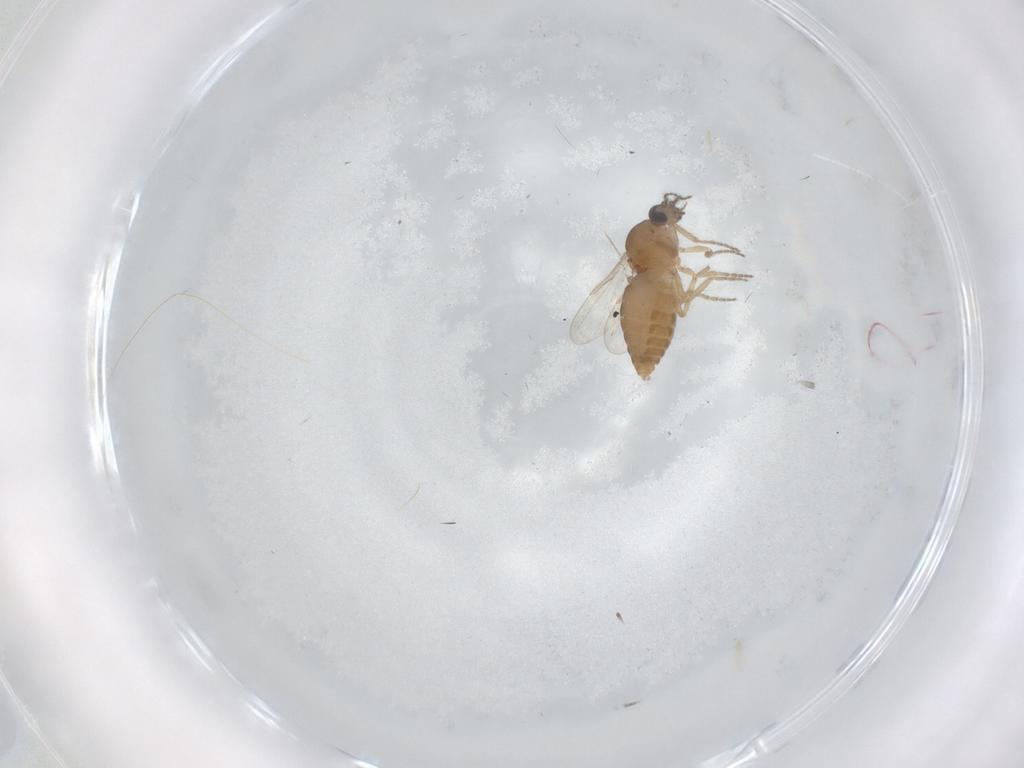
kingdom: Animalia
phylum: Arthropoda
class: Insecta
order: Diptera
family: Ceratopogonidae
